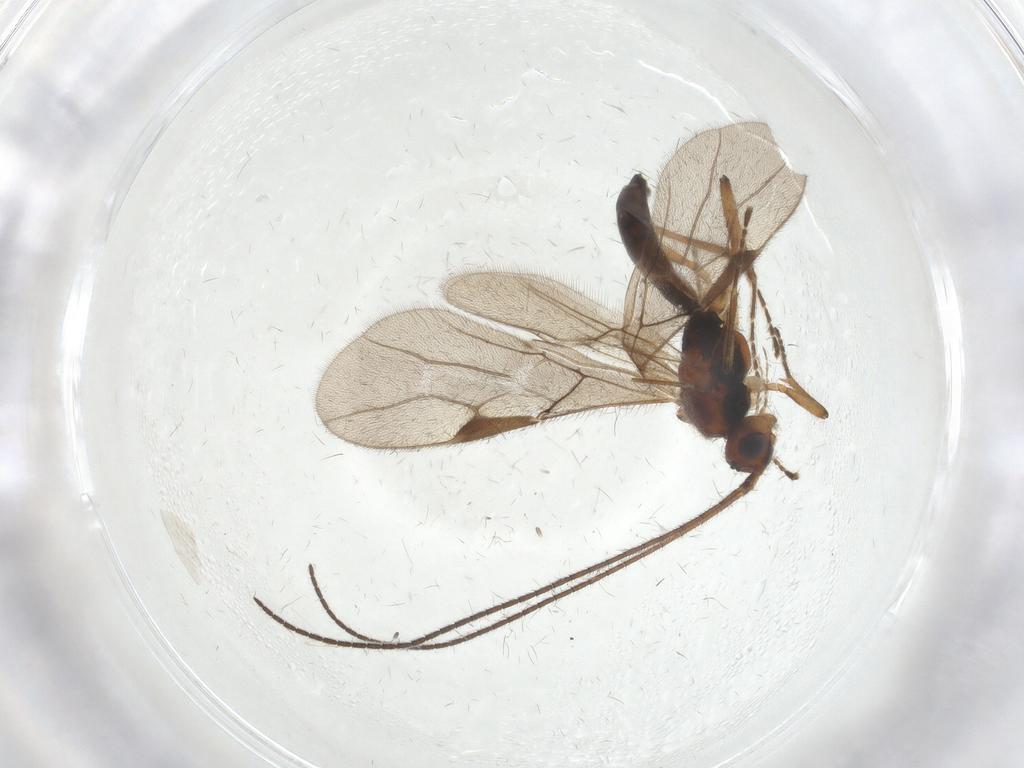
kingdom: Animalia
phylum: Arthropoda
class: Insecta
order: Hymenoptera
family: Braconidae
